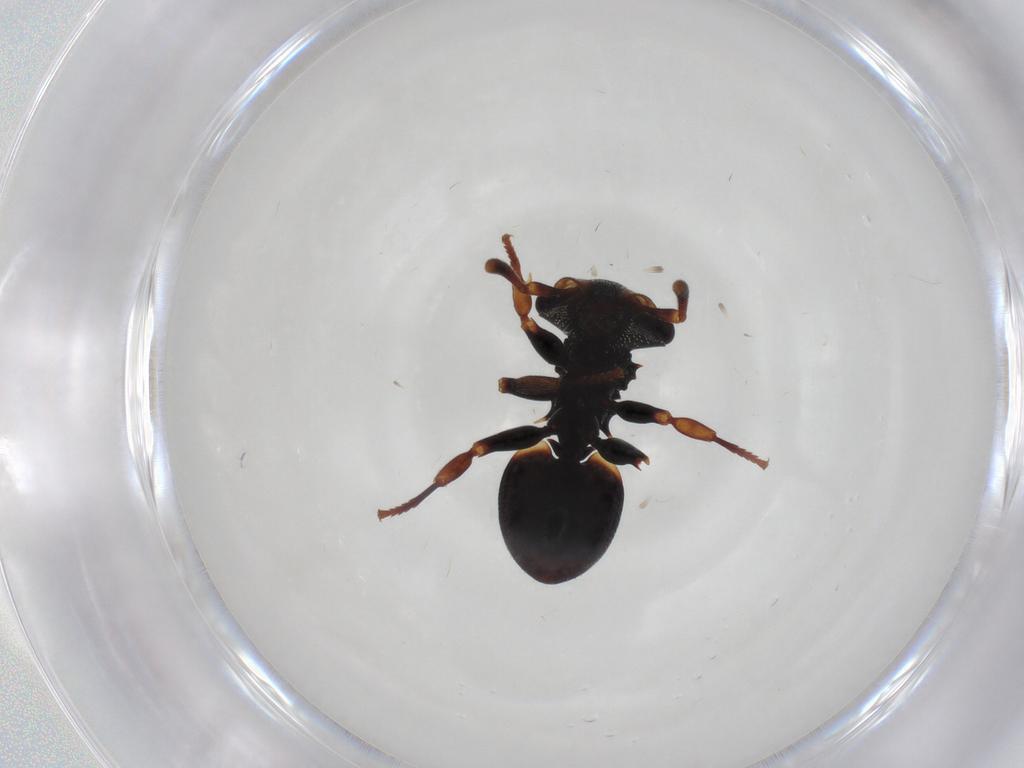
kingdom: Animalia
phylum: Arthropoda
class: Insecta
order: Hymenoptera
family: Formicidae
